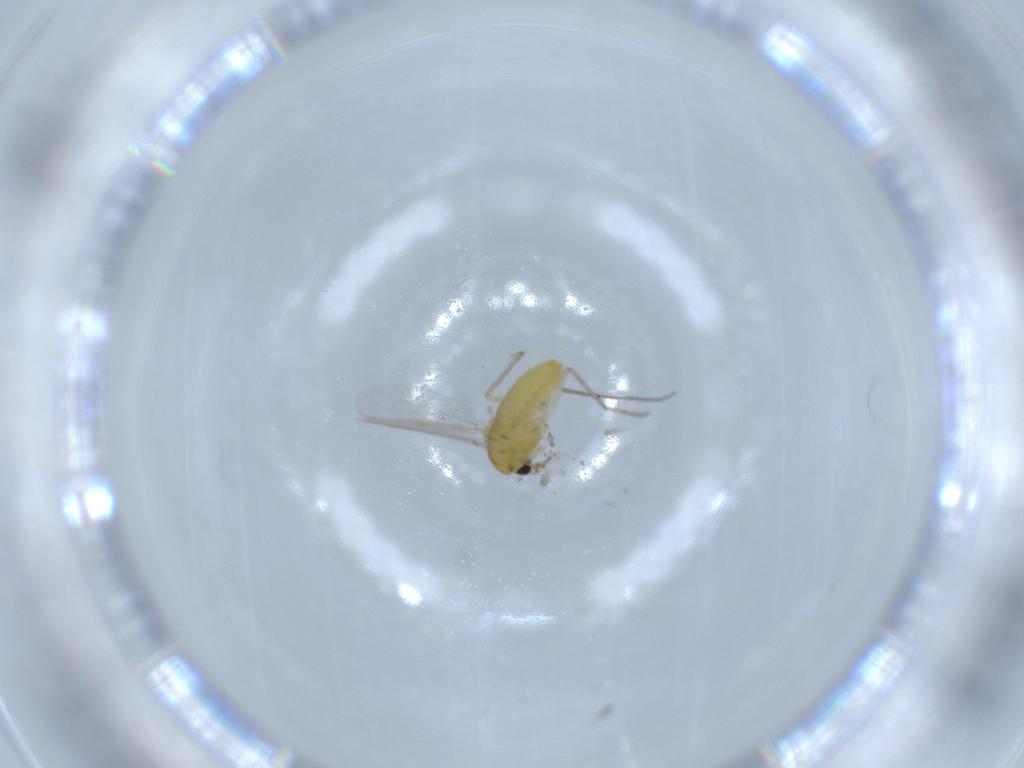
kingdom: Animalia
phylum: Arthropoda
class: Insecta
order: Diptera
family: Chironomidae
